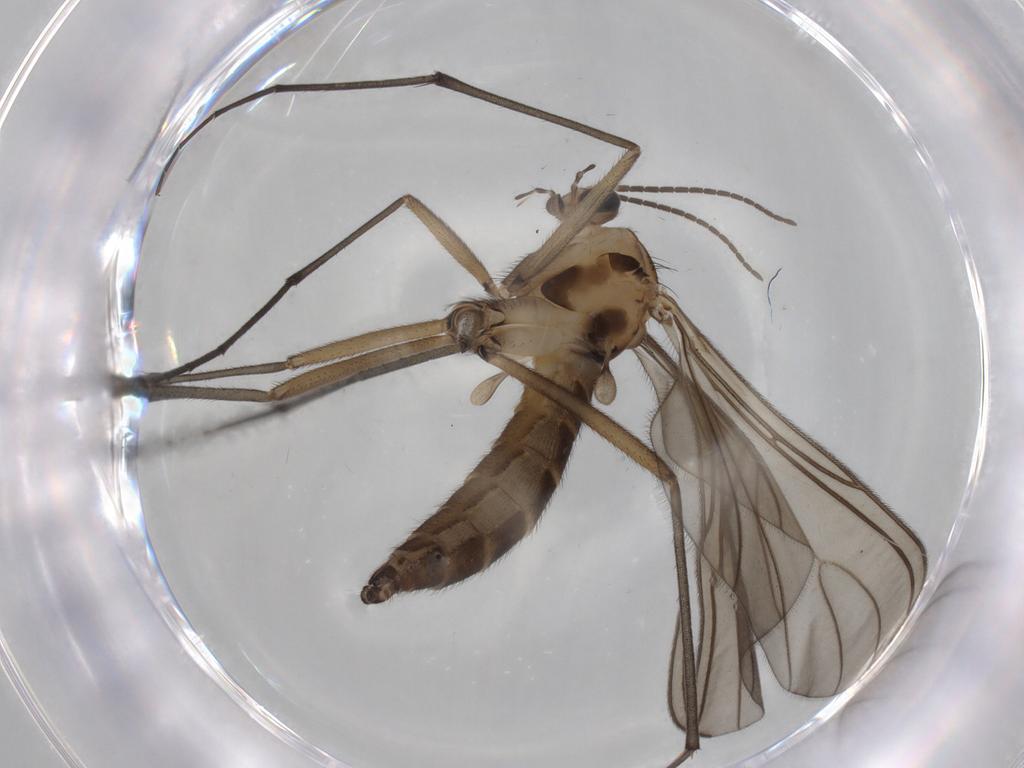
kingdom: Animalia
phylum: Arthropoda
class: Insecta
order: Diptera
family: Sciaridae
